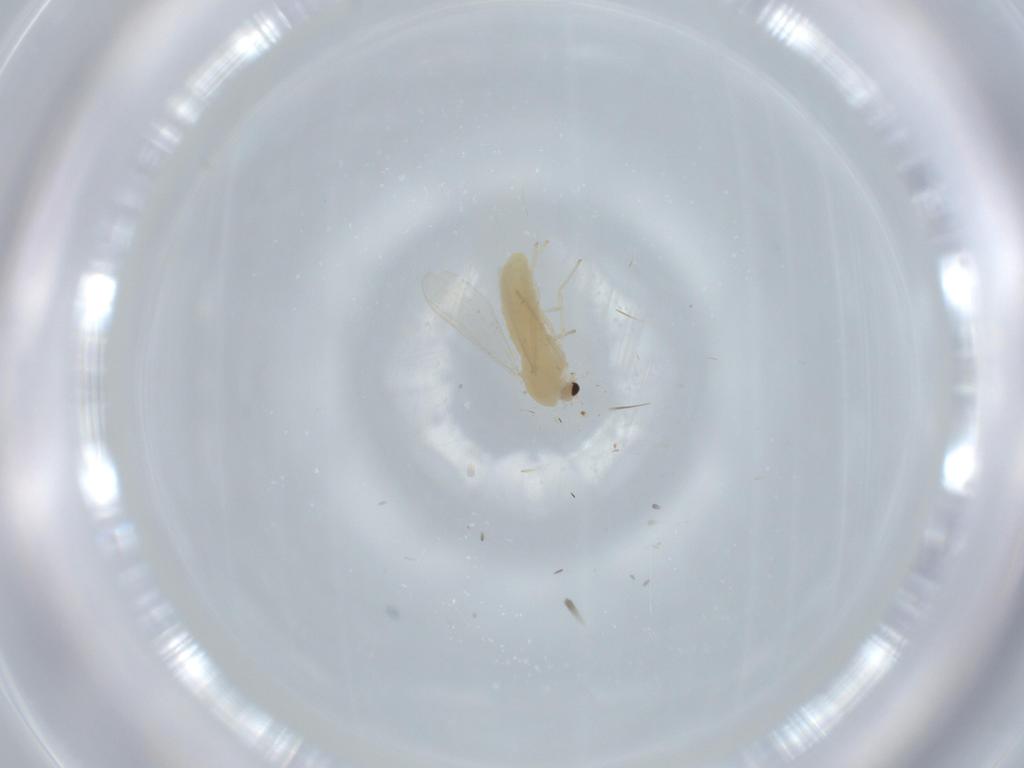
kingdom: Animalia
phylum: Arthropoda
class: Insecta
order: Diptera
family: Chironomidae
